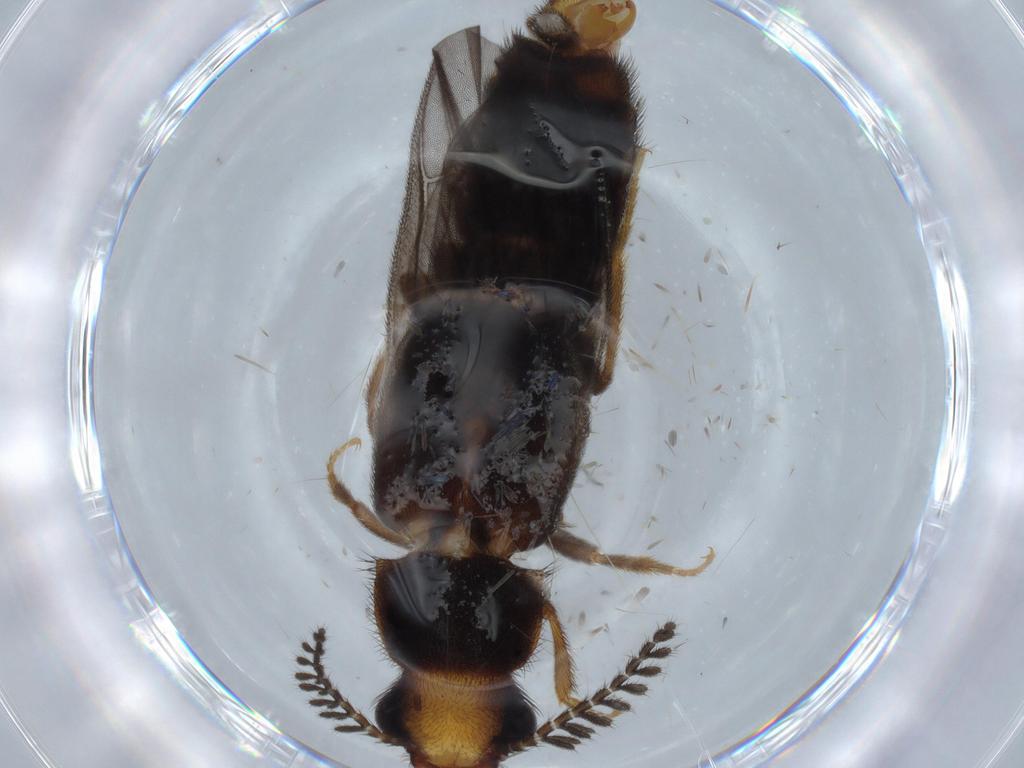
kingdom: Animalia
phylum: Arthropoda
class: Insecta
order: Coleoptera
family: Phengodidae
